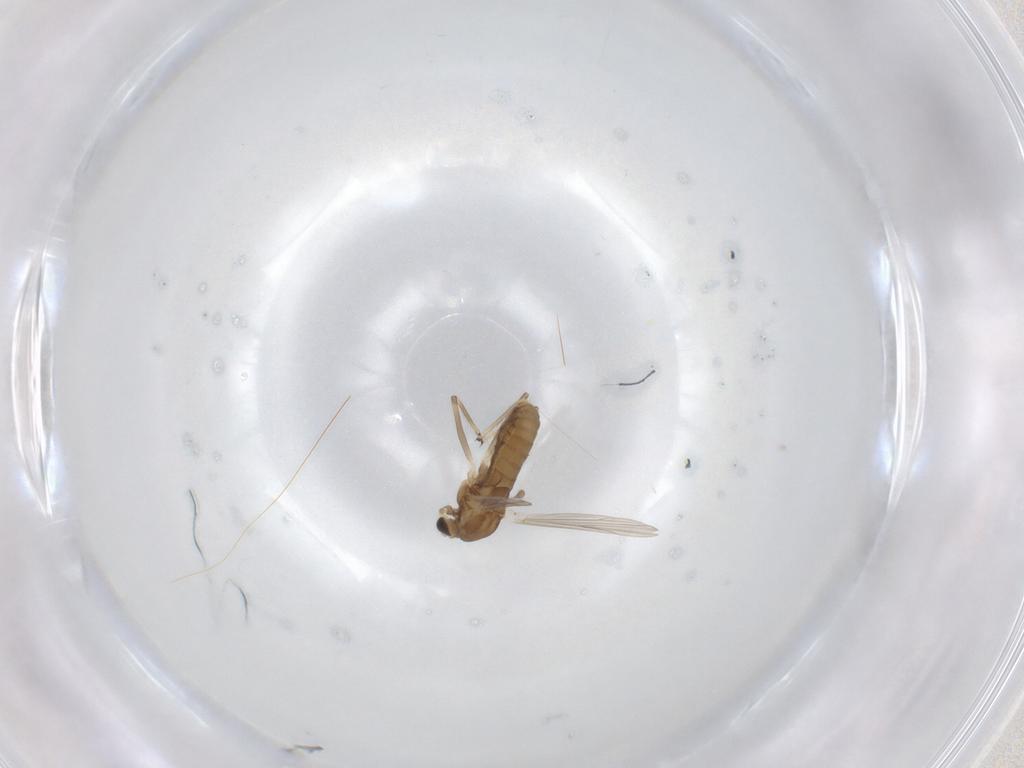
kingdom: Animalia
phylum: Arthropoda
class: Insecta
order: Diptera
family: Chironomidae
